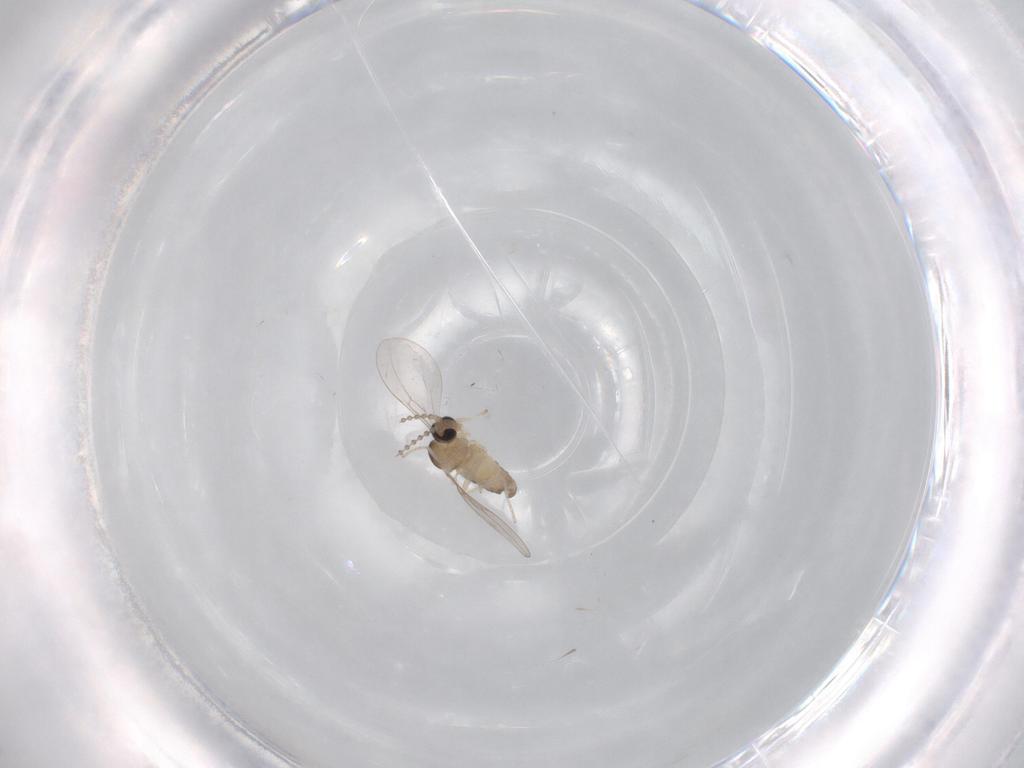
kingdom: Animalia
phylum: Arthropoda
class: Insecta
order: Diptera
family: Cecidomyiidae
